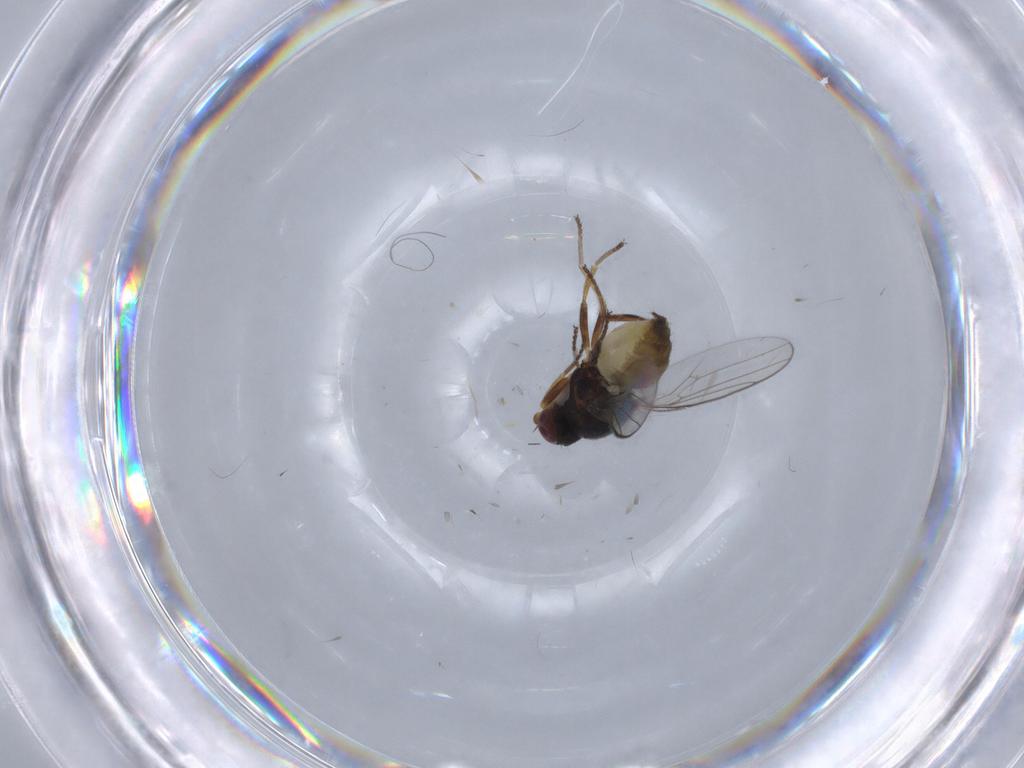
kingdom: Animalia
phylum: Arthropoda
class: Insecta
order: Diptera
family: Chloropidae
